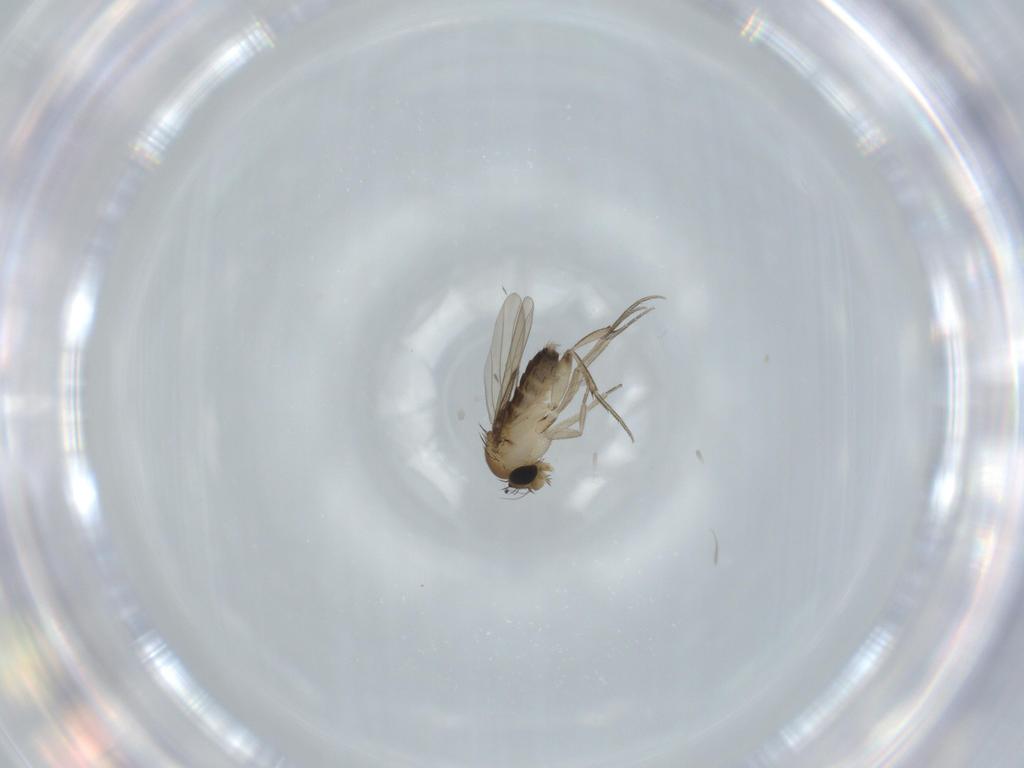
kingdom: Animalia
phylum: Arthropoda
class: Insecta
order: Diptera
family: Phoridae
